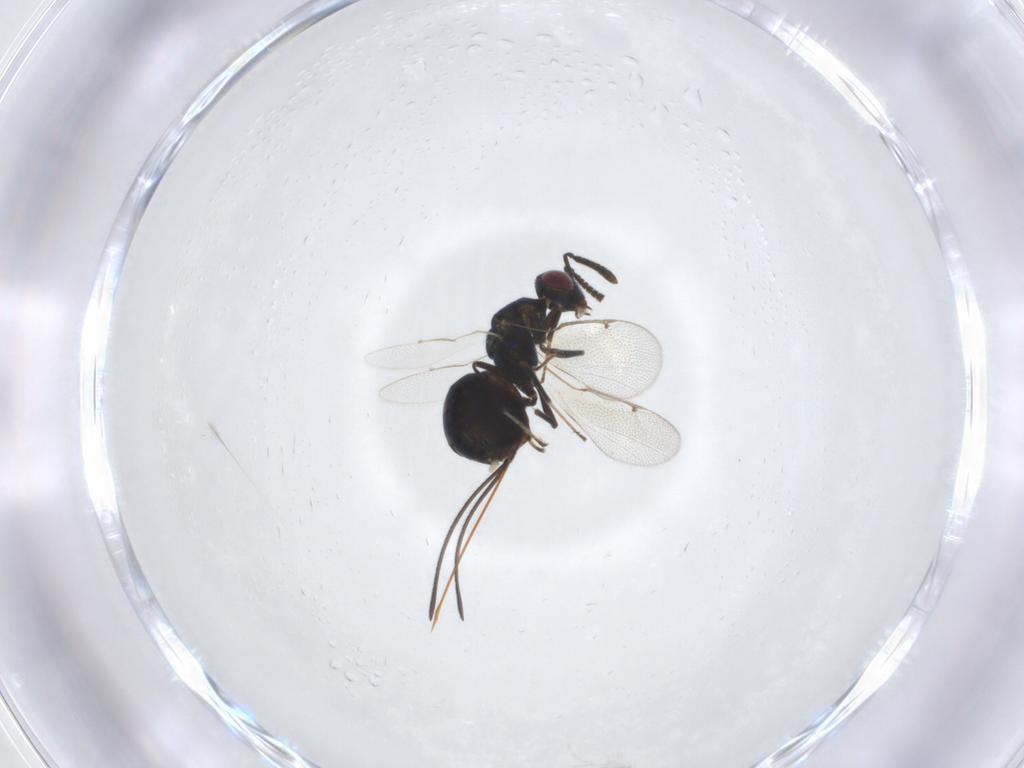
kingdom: Animalia
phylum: Arthropoda
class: Insecta
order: Hymenoptera
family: Torymidae
